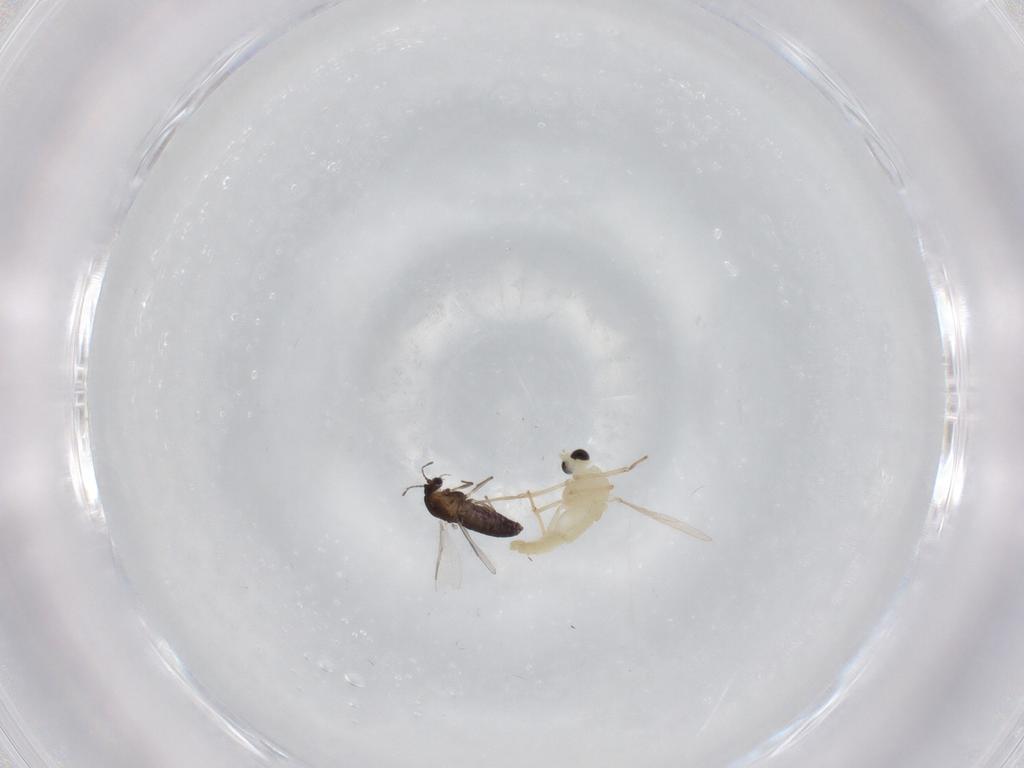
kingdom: Animalia
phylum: Arthropoda
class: Insecta
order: Diptera
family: Chironomidae
